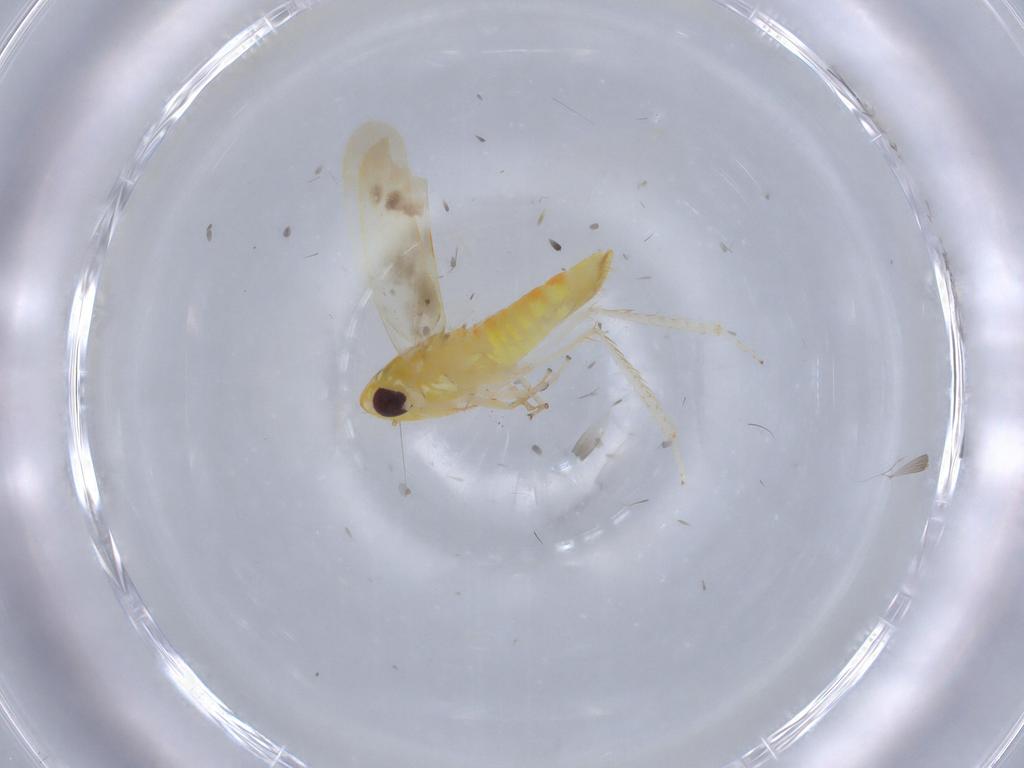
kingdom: Animalia
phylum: Arthropoda
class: Insecta
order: Hemiptera
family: Cicadellidae
